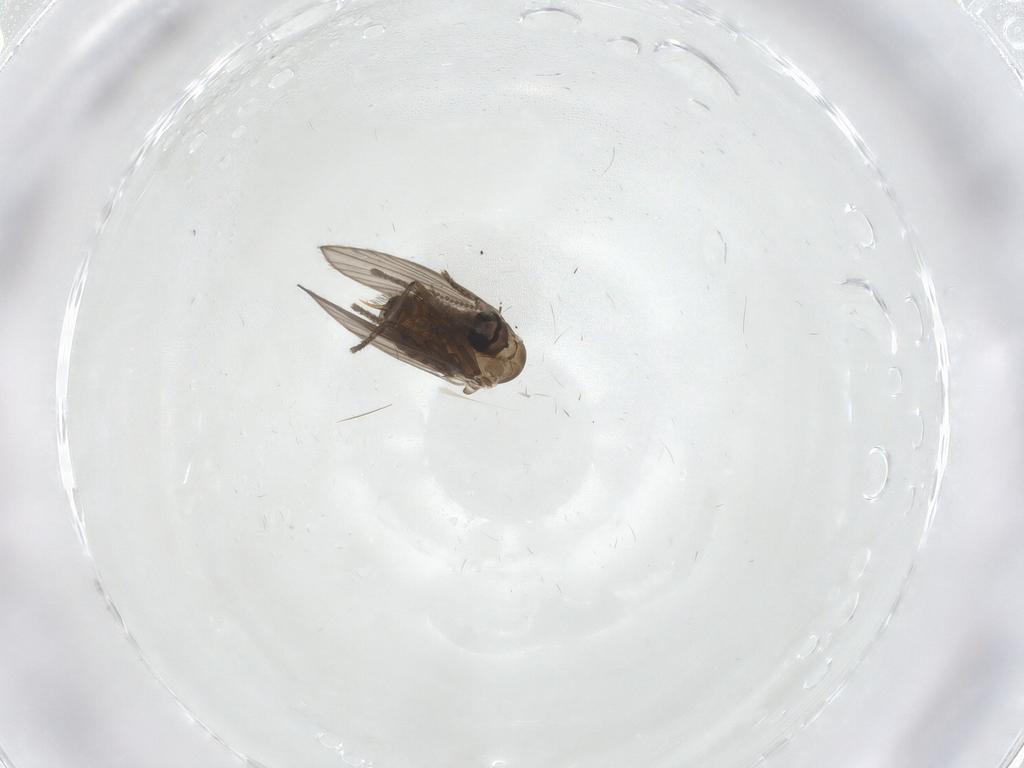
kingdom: Animalia
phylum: Arthropoda
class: Insecta
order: Diptera
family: Psychodidae
